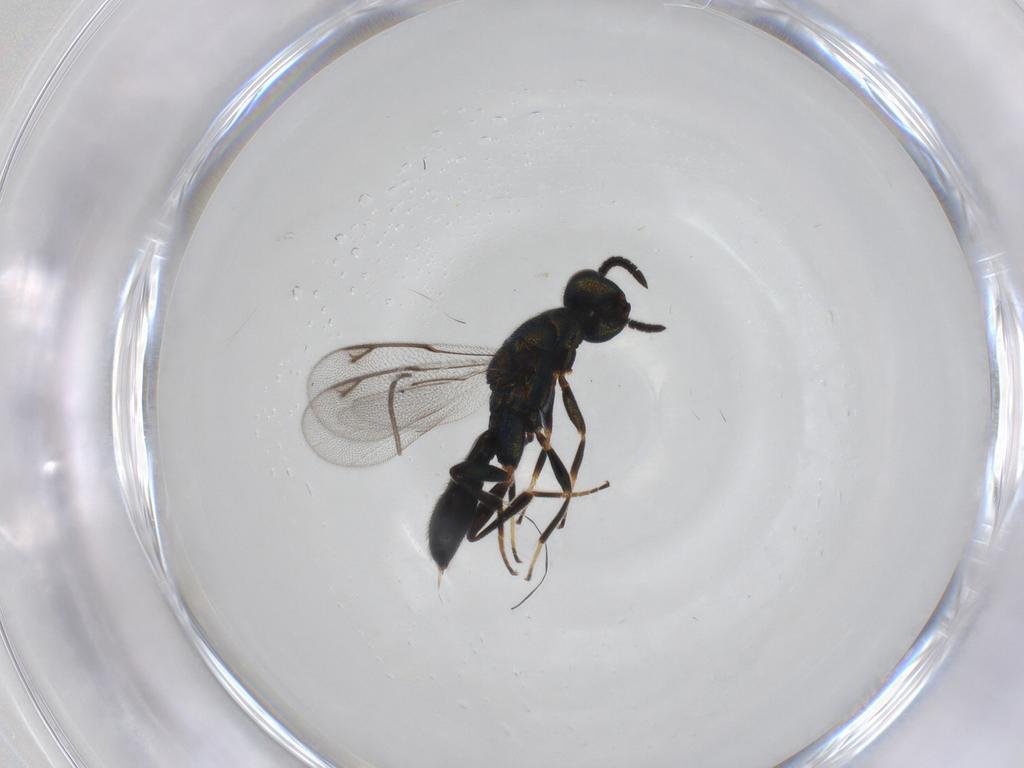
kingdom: Animalia
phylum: Arthropoda
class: Insecta
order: Hymenoptera
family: Cleonyminae
